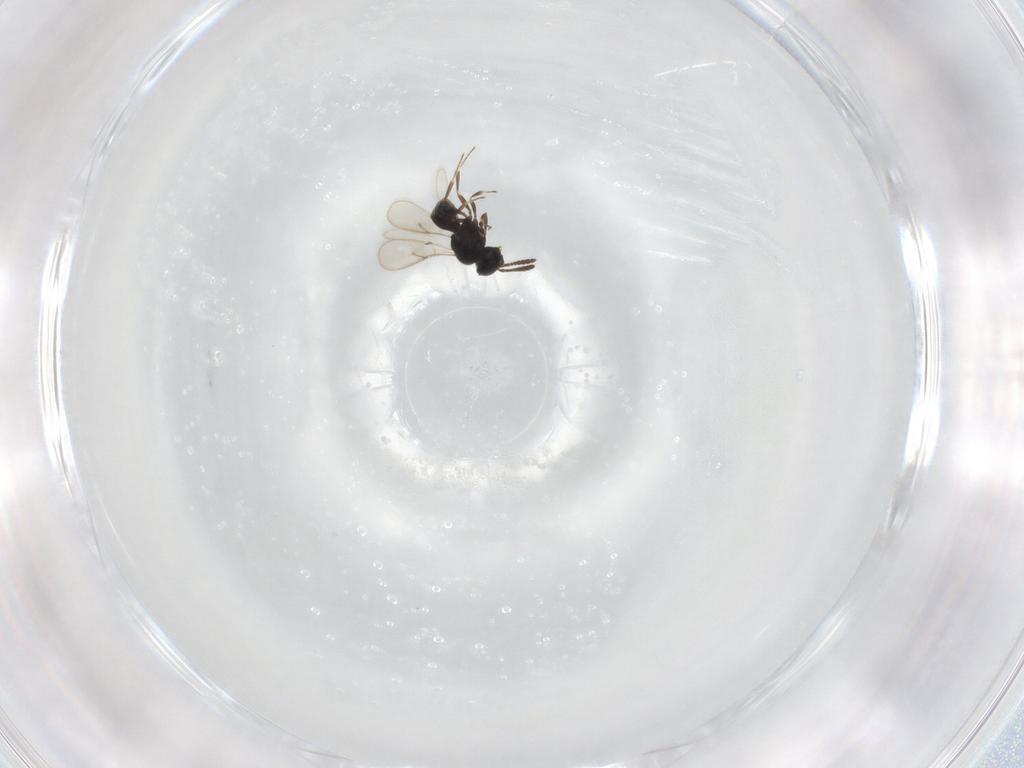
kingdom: Animalia
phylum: Arthropoda
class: Insecta
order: Hymenoptera
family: Scelionidae
